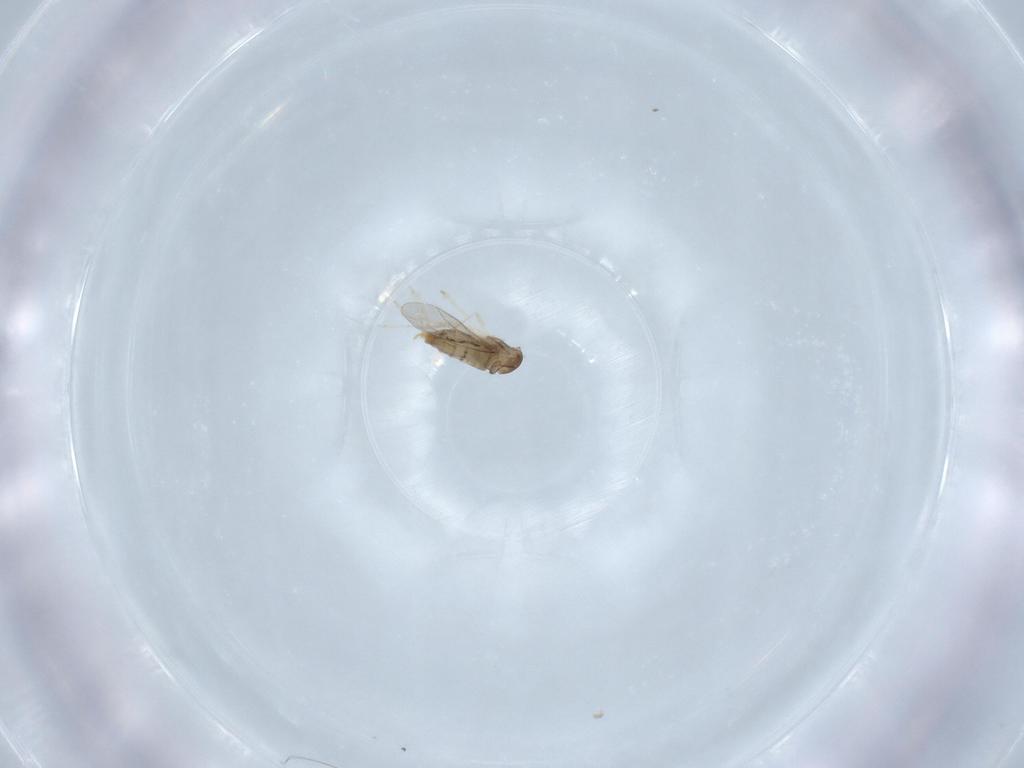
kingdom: Animalia
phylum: Arthropoda
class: Insecta
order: Diptera
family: Cecidomyiidae
